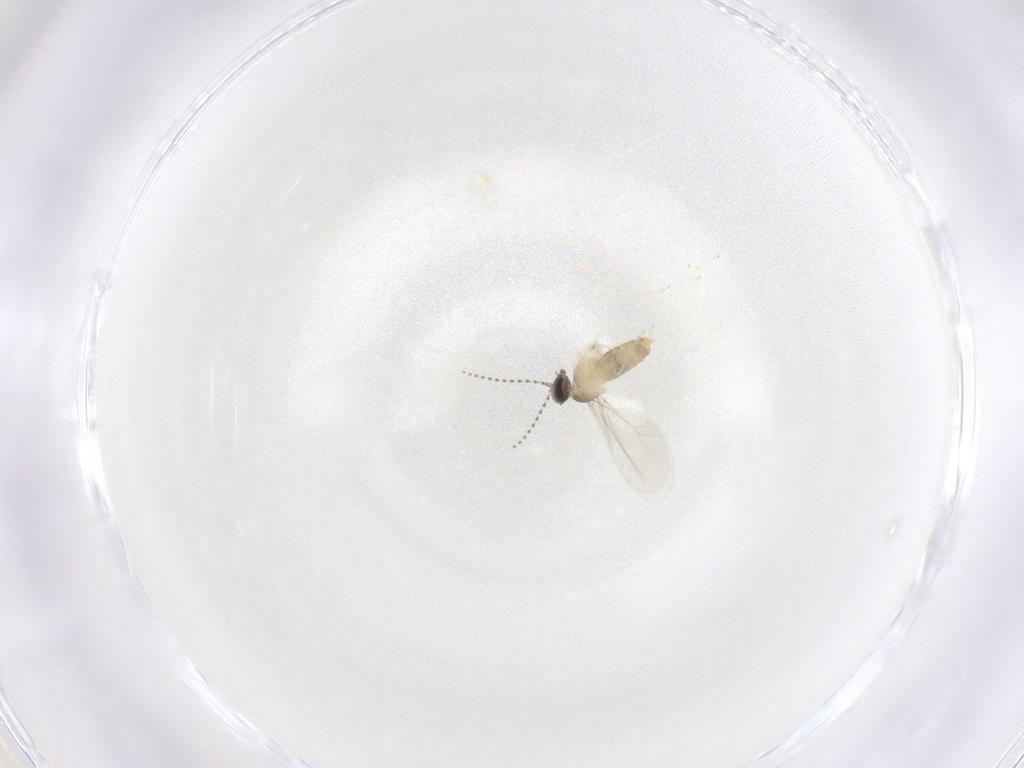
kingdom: Animalia
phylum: Arthropoda
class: Insecta
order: Diptera
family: Cecidomyiidae
